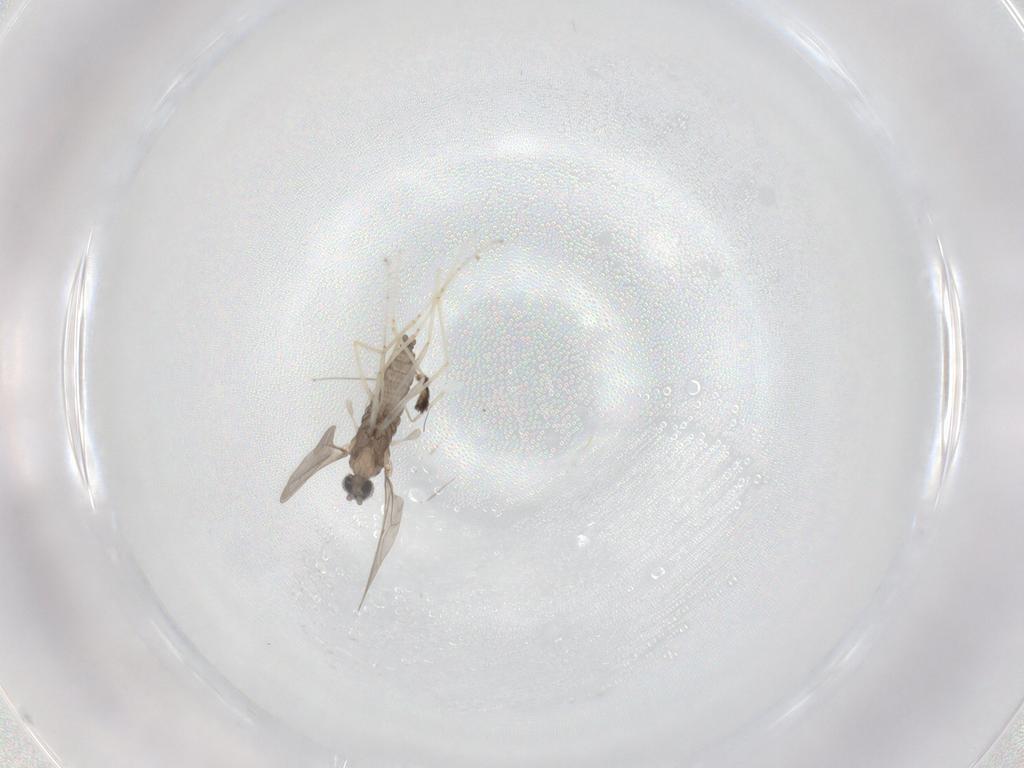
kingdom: Animalia
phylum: Arthropoda
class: Insecta
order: Diptera
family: Cecidomyiidae
